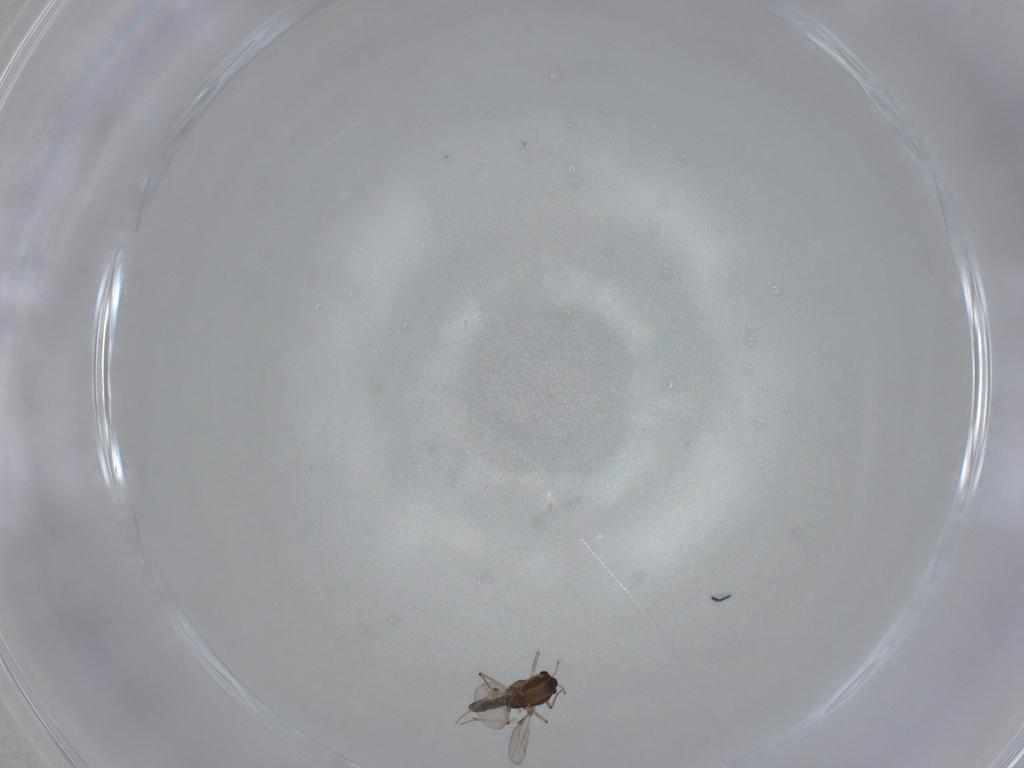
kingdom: Animalia
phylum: Arthropoda
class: Insecta
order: Diptera
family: Chironomidae
